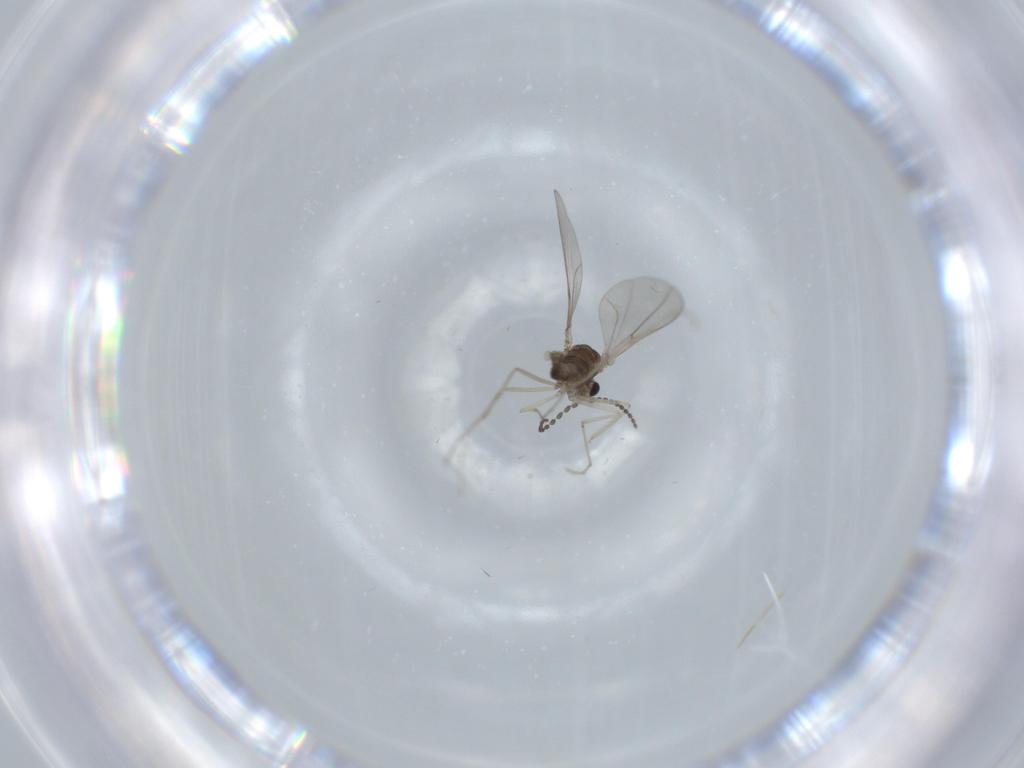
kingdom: Animalia
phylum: Arthropoda
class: Insecta
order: Diptera
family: Cecidomyiidae
